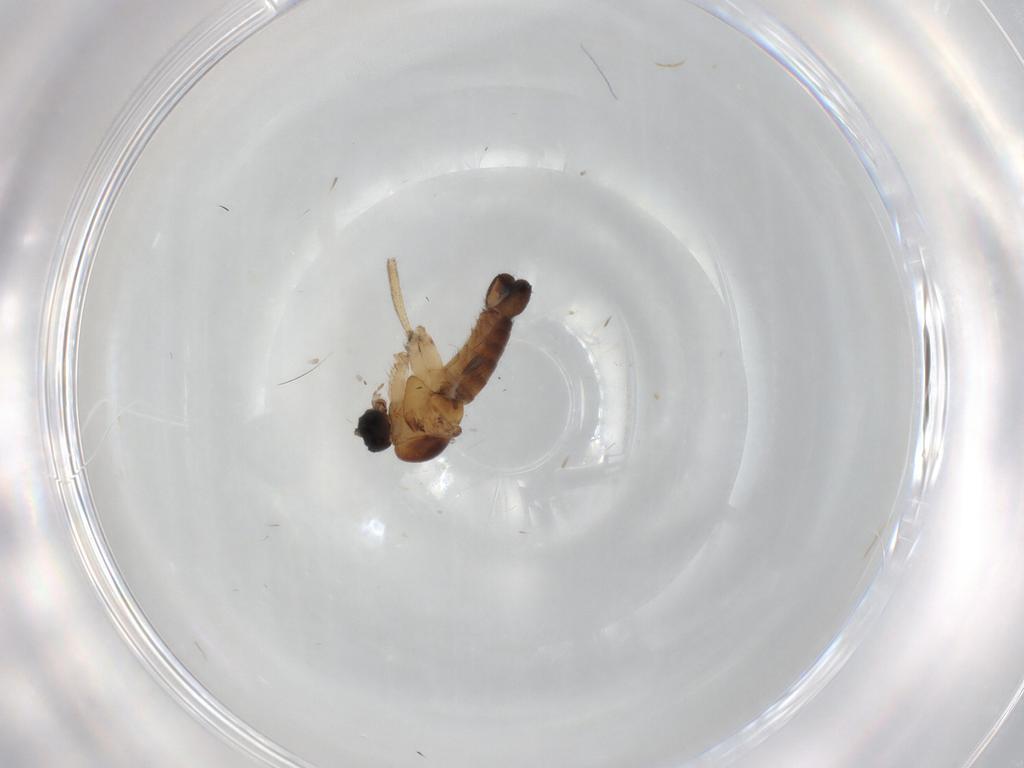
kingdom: Animalia
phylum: Arthropoda
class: Insecta
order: Diptera
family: Sciaridae
